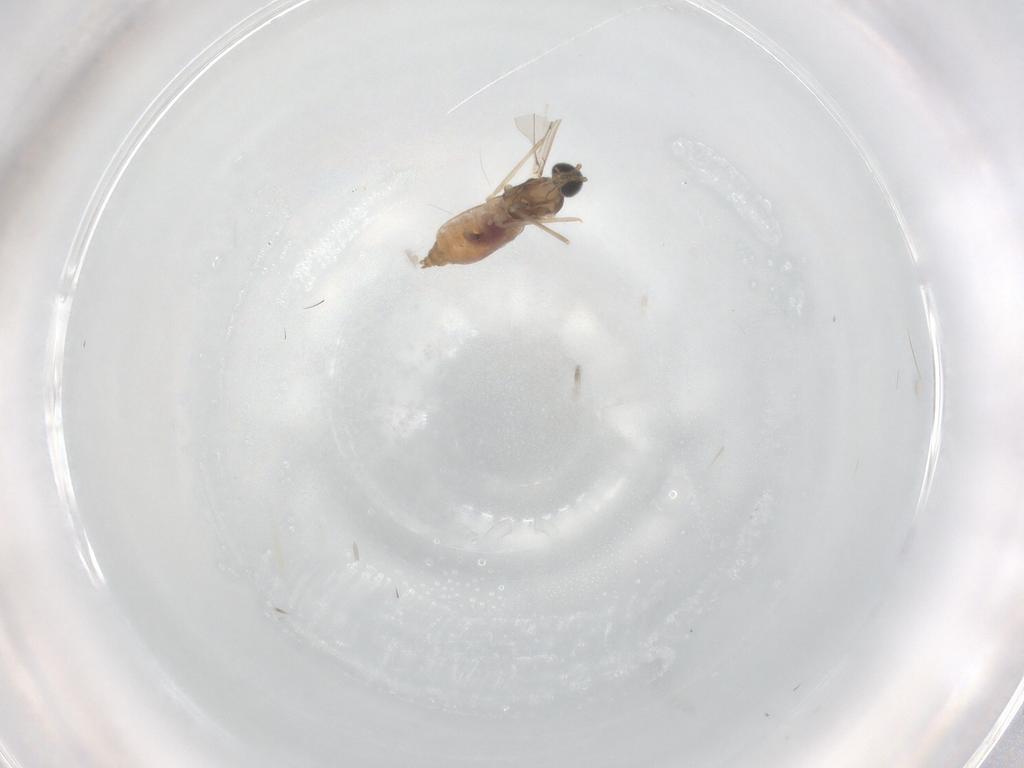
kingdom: Animalia
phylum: Arthropoda
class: Insecta
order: Diptera
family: Cecidomyiidae
